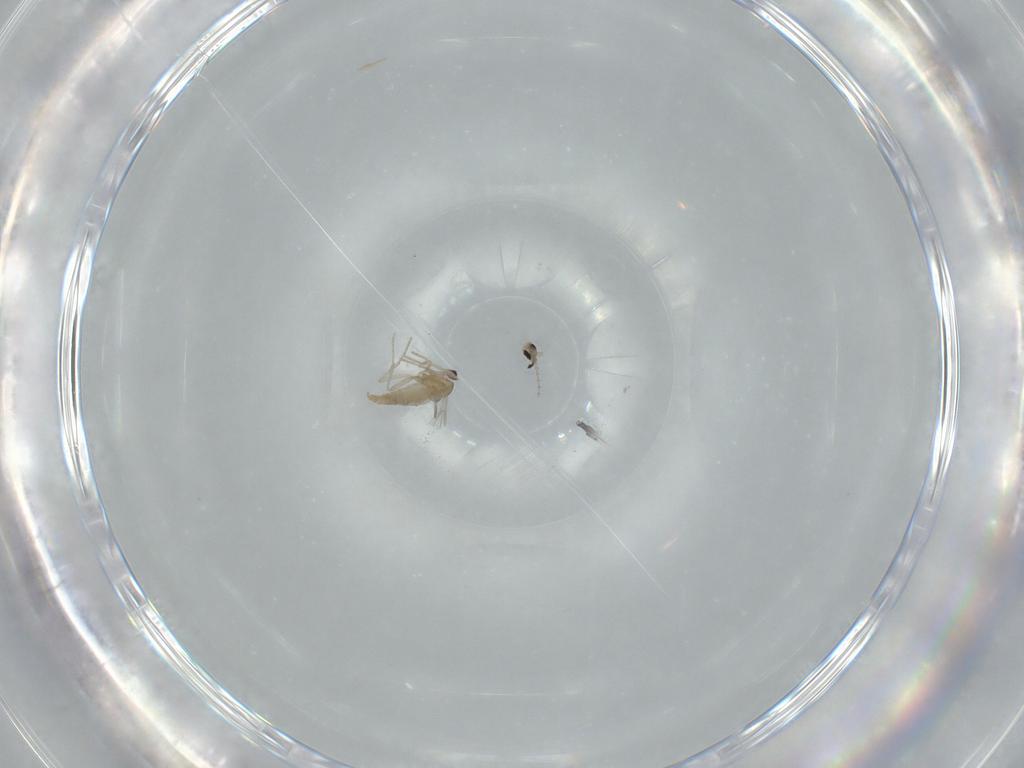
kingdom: Animalia
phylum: Arthropoda
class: Insecta
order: Diptera
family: Cecidomyiidae
